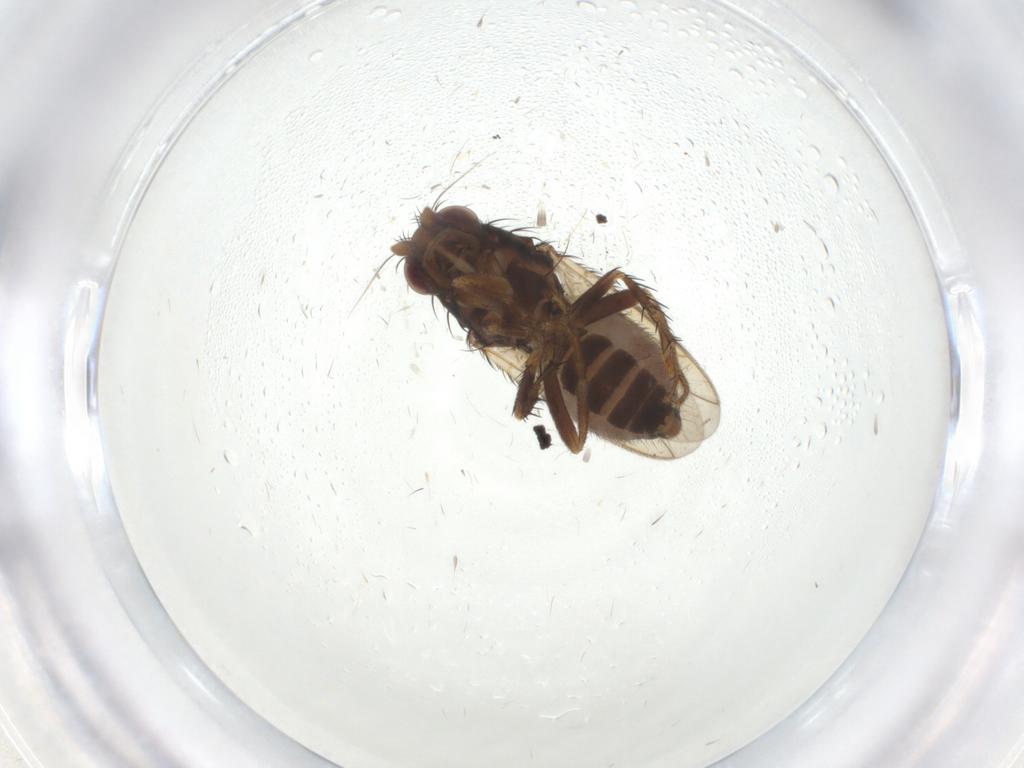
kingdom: Animalia
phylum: Arthropoda
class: Insecta
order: Diptera
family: Sphaeroceridae
